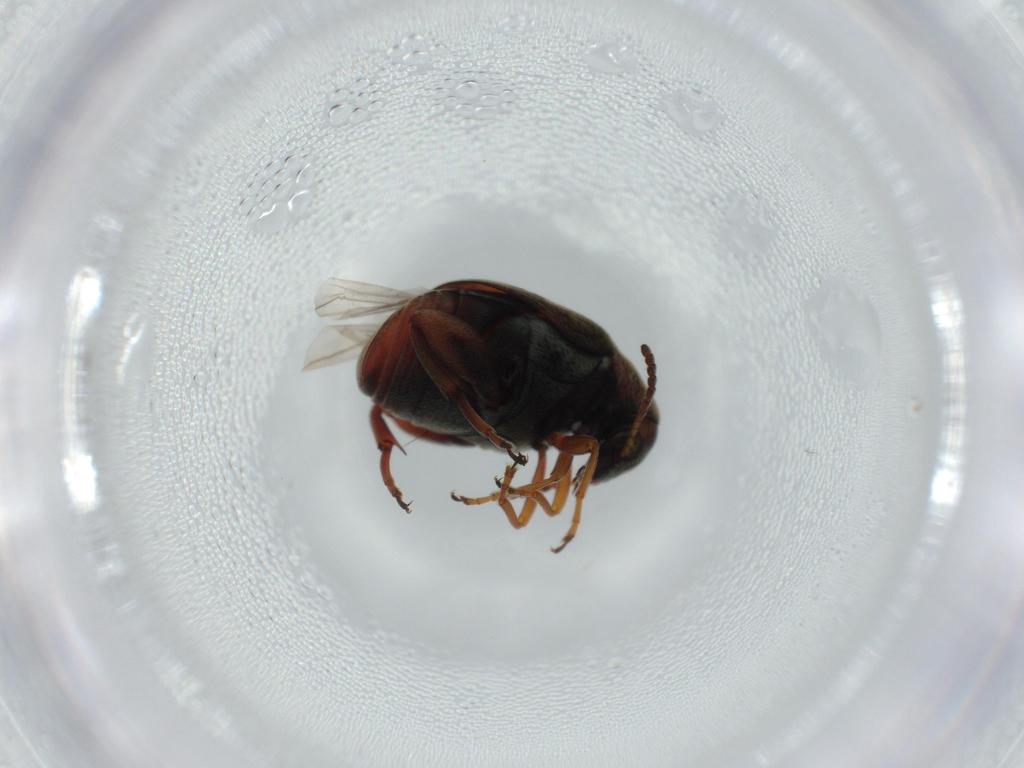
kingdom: Animalia
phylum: Arthropoda
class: Insecta
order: Coleoptera
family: Chrysomelidae
